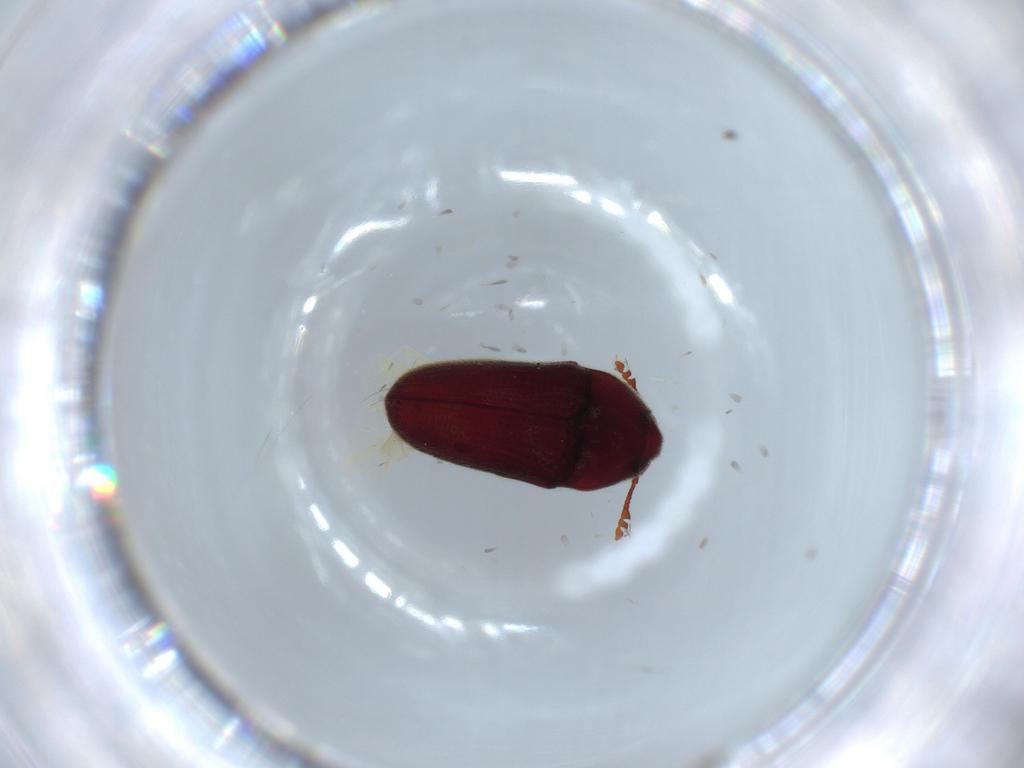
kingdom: Animalia
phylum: Arthropoda
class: Insecta
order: Coleoptera
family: Throscidae
